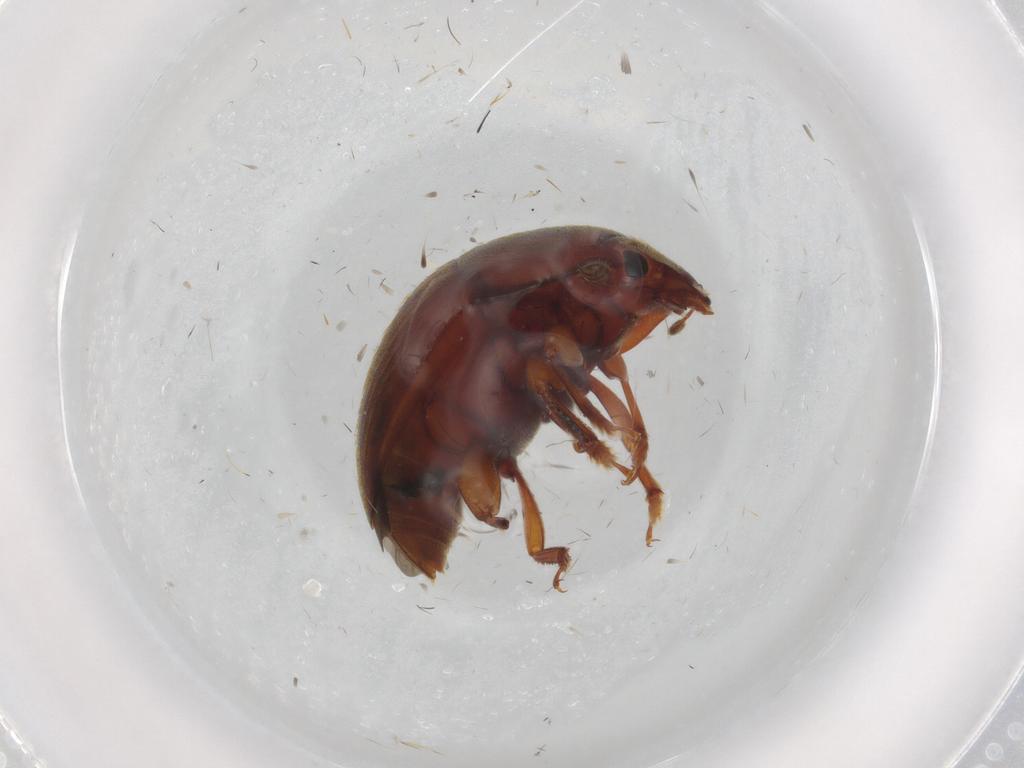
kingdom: Animalia
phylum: Arthropoda
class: Insecta
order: Coleoptera
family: Nitidulidae
